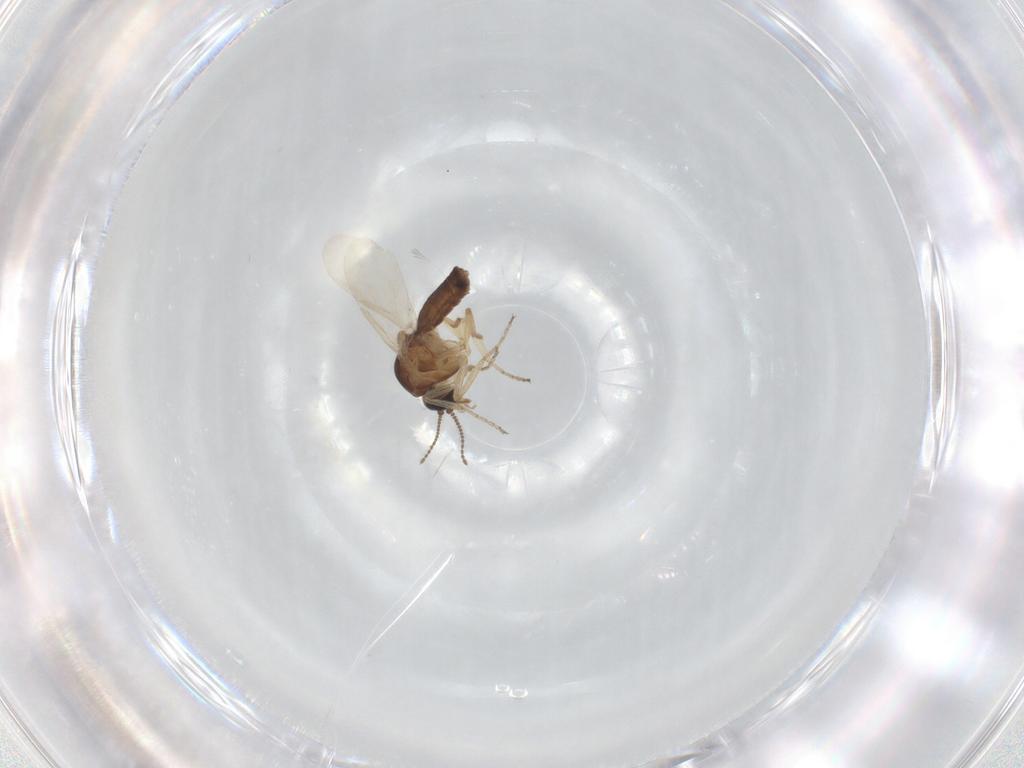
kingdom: Animalia
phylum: Arthropoda
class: Insecta
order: Diptera
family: Ceratopogonidae
